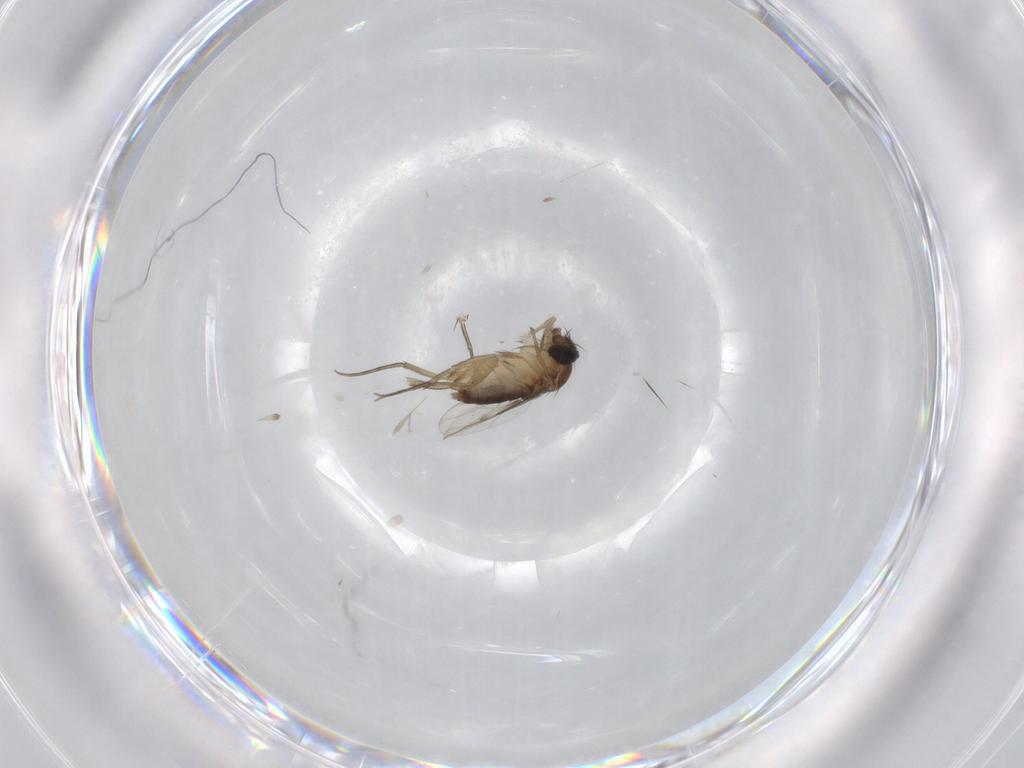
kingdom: Animalia
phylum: Arthropoda
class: Insecta
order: Diptera
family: Phoridae
